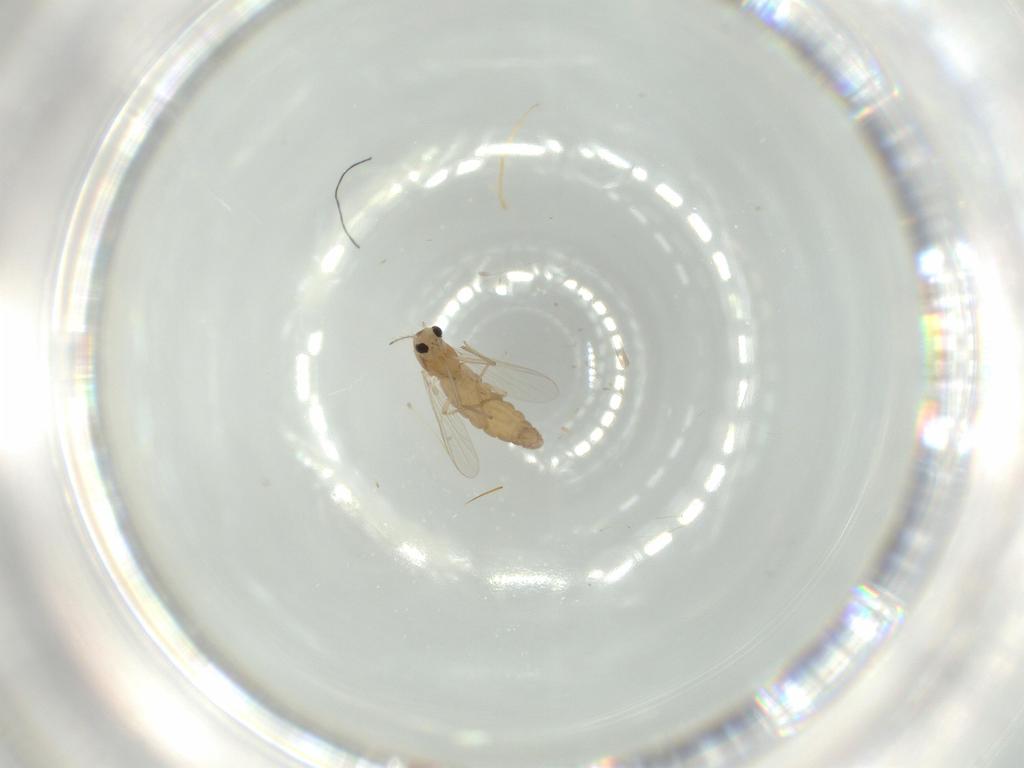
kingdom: Animalia
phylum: Arthropoda
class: Insecta
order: Diptera
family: Chironomidae
